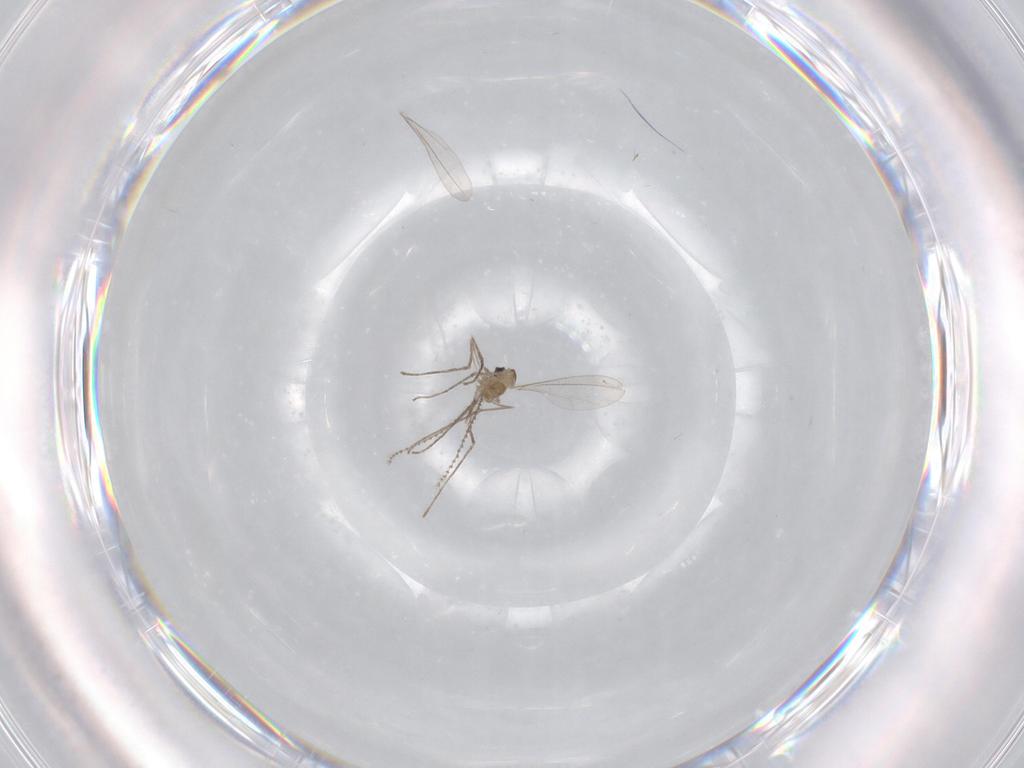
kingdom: Animalia
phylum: Arthropoda
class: Insecta
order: Diptera
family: Cecidomyiidae
